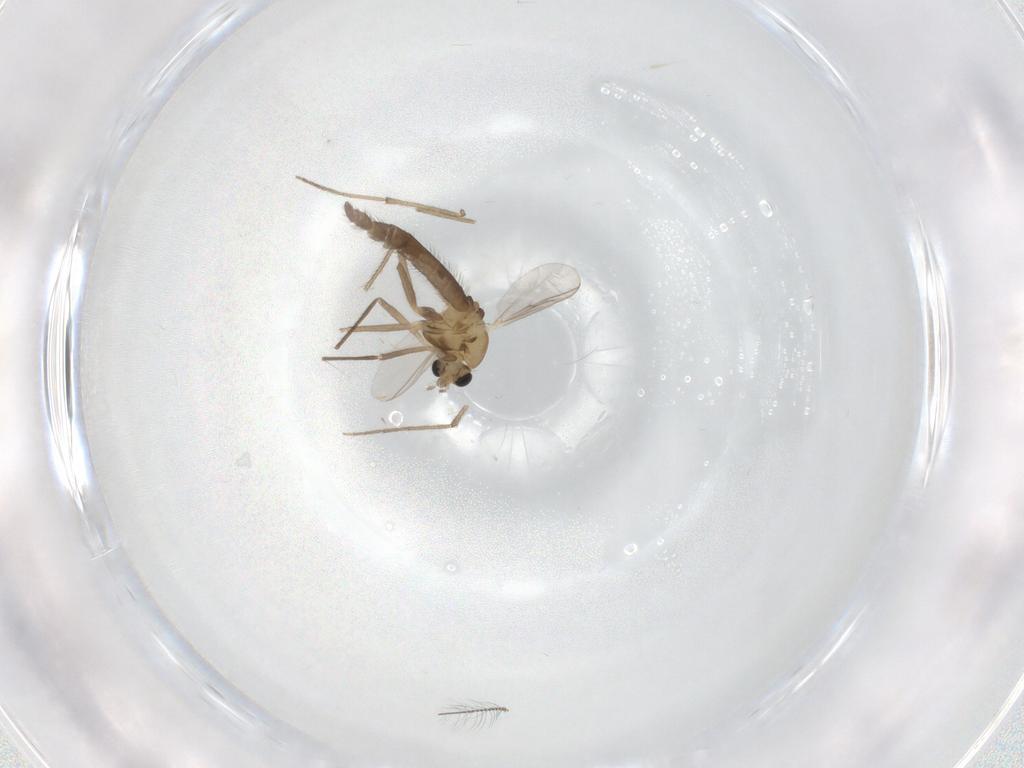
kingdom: Animalia
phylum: Arthropoda
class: Insecta
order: Diptera
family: Chironomidae
